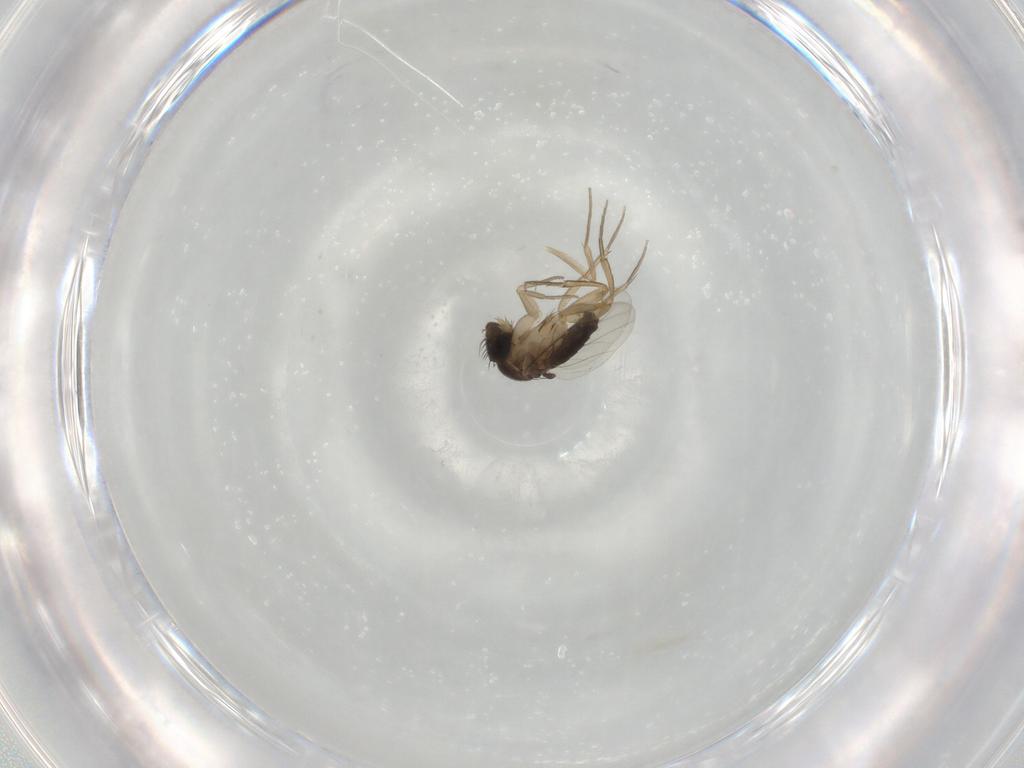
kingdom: Animalia
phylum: Arthropoda
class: Insecta
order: Diptera
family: Phoridae
